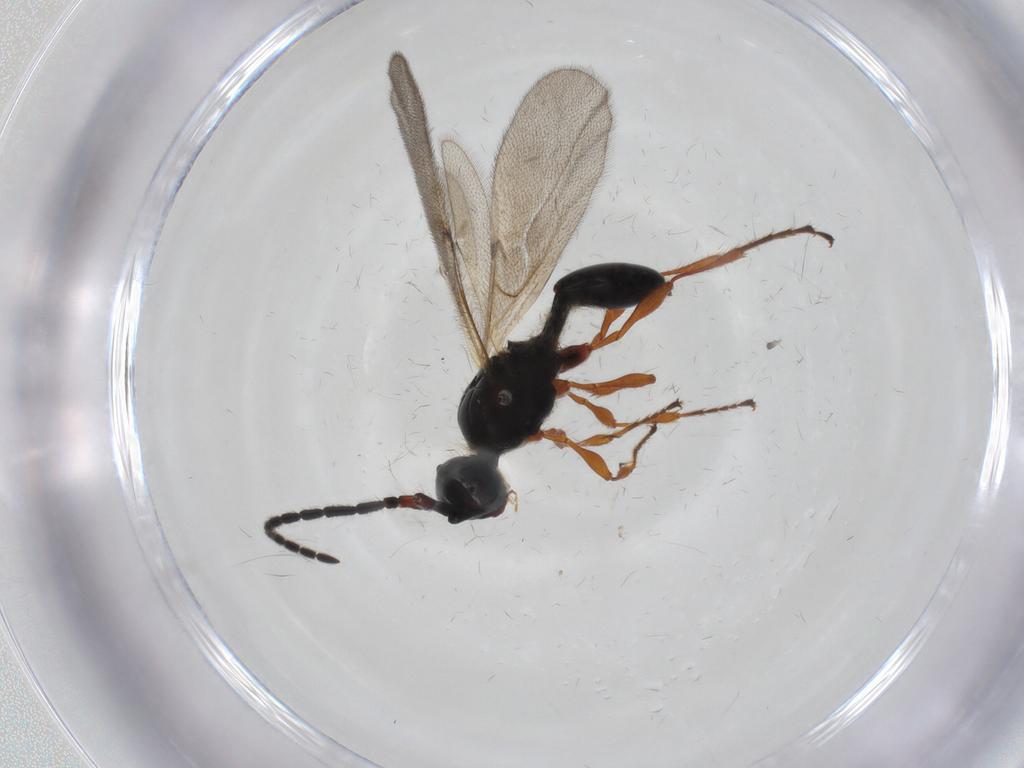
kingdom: Animalia
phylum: Arthropoda
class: Insecta
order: Hymenoptera
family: Diapriidae
